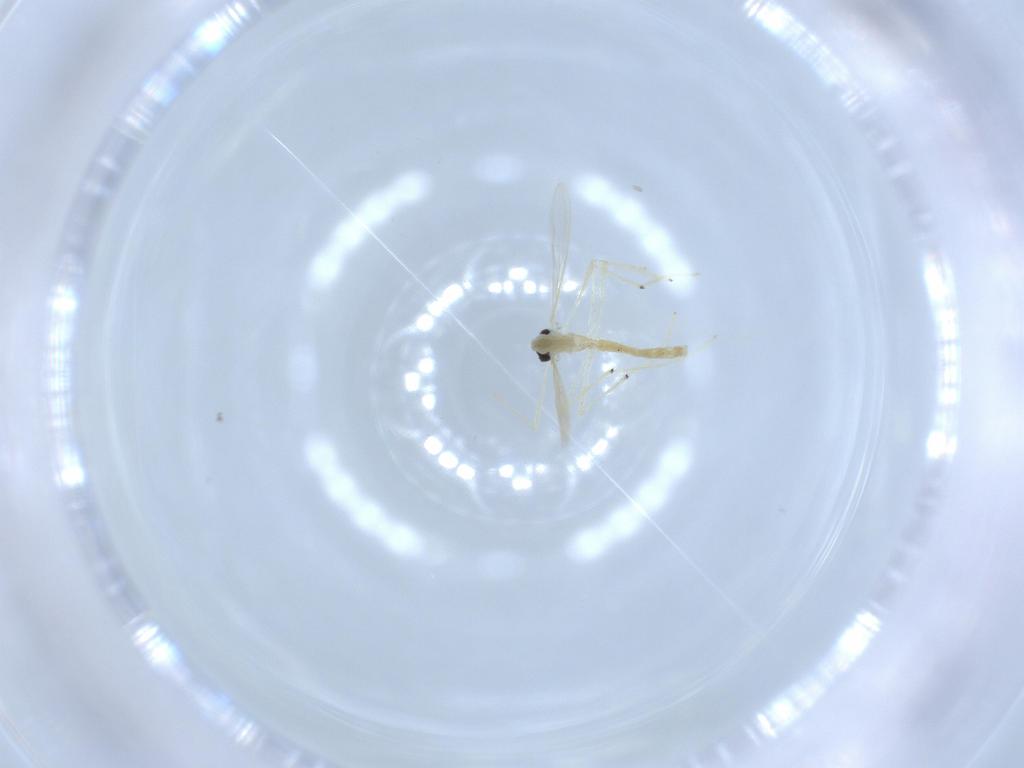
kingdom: Animalia
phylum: Arthropoda
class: Insecta
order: Diptera
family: Chironomidae
